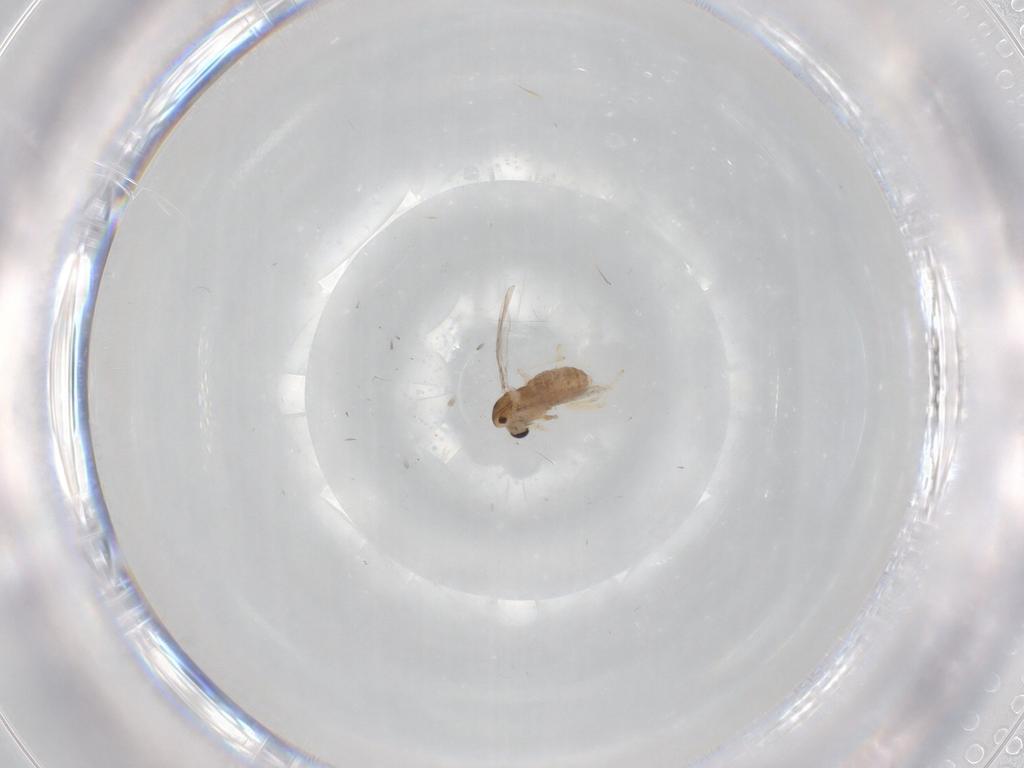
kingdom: Animalia
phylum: Arthropoda
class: Insecta
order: Diptera
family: Chironomidae
